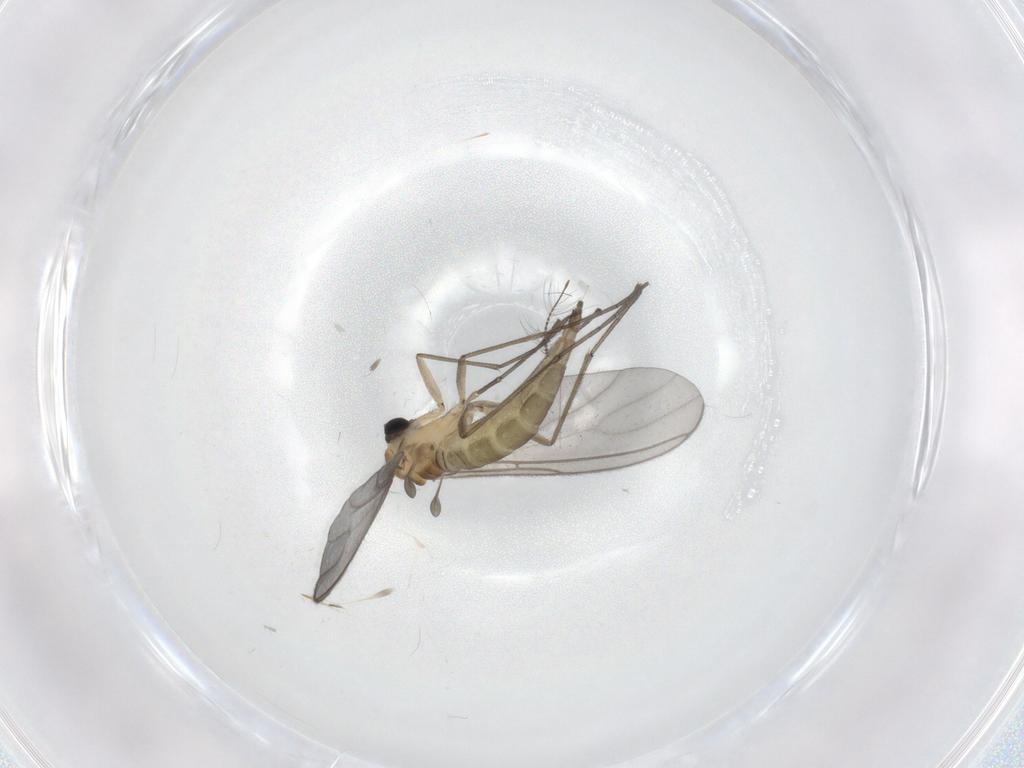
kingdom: Animalia
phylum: Arthropoda
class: Insecta
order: Diptera
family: Sciaridae
